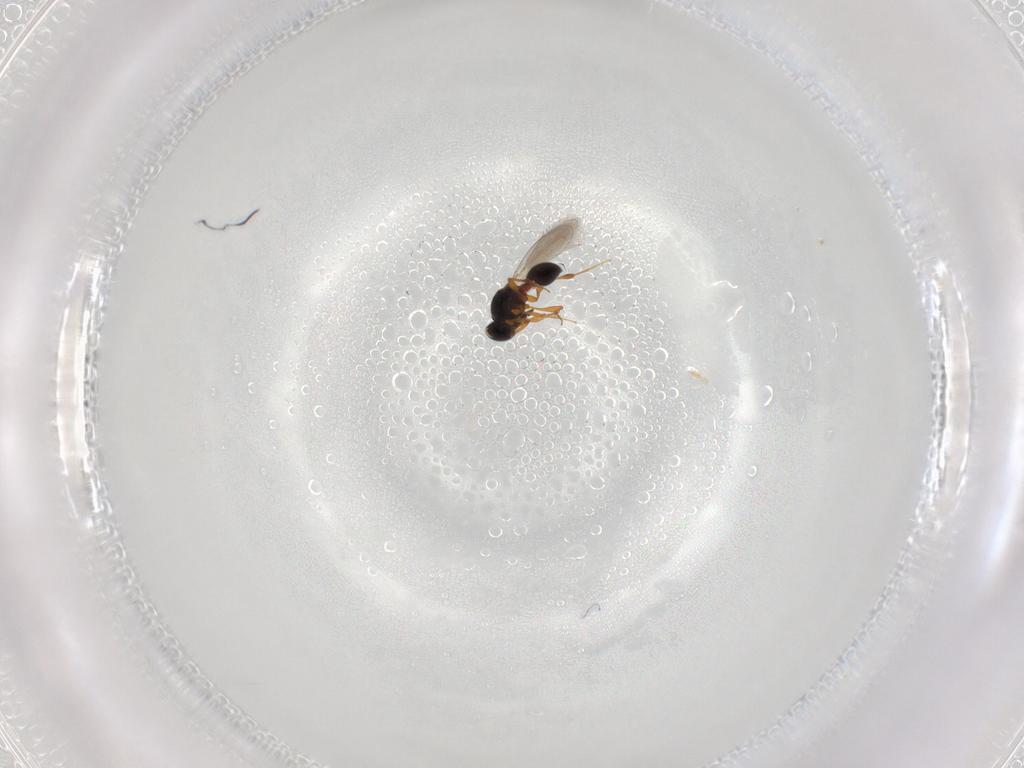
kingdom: Animalia
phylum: Arthropoda
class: Insecta
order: Hymenoptera
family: Platygastridae
